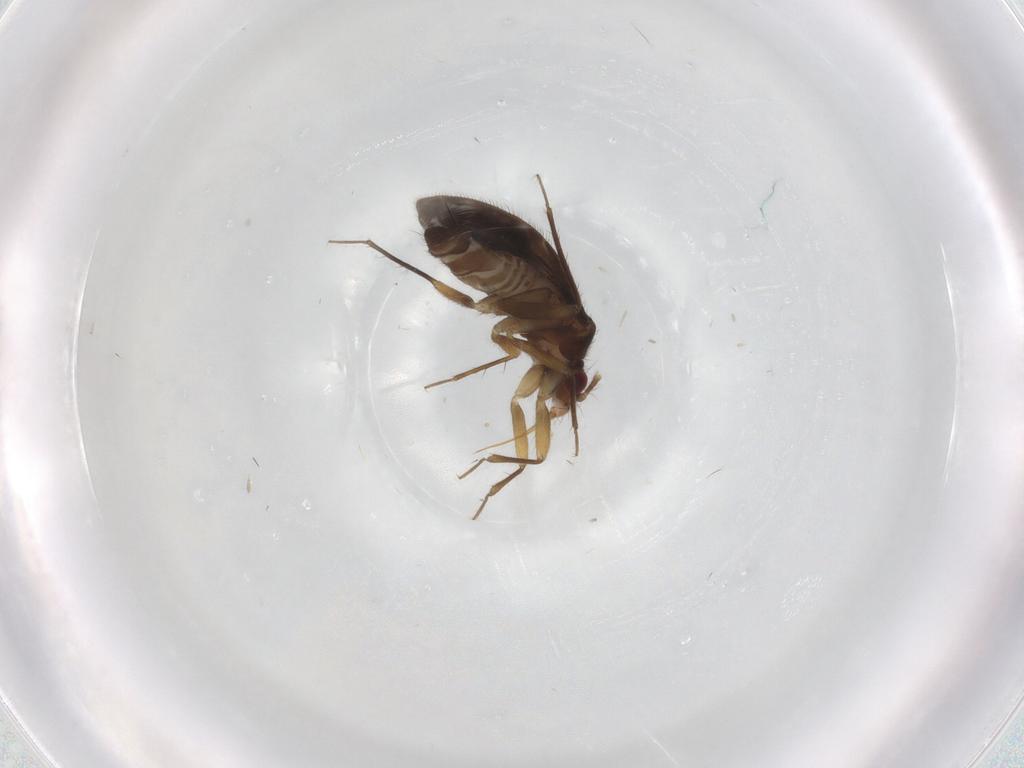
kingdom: Animalia
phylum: Arthropoda
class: Insecta
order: Hemiptera
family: Ceratocombidae
